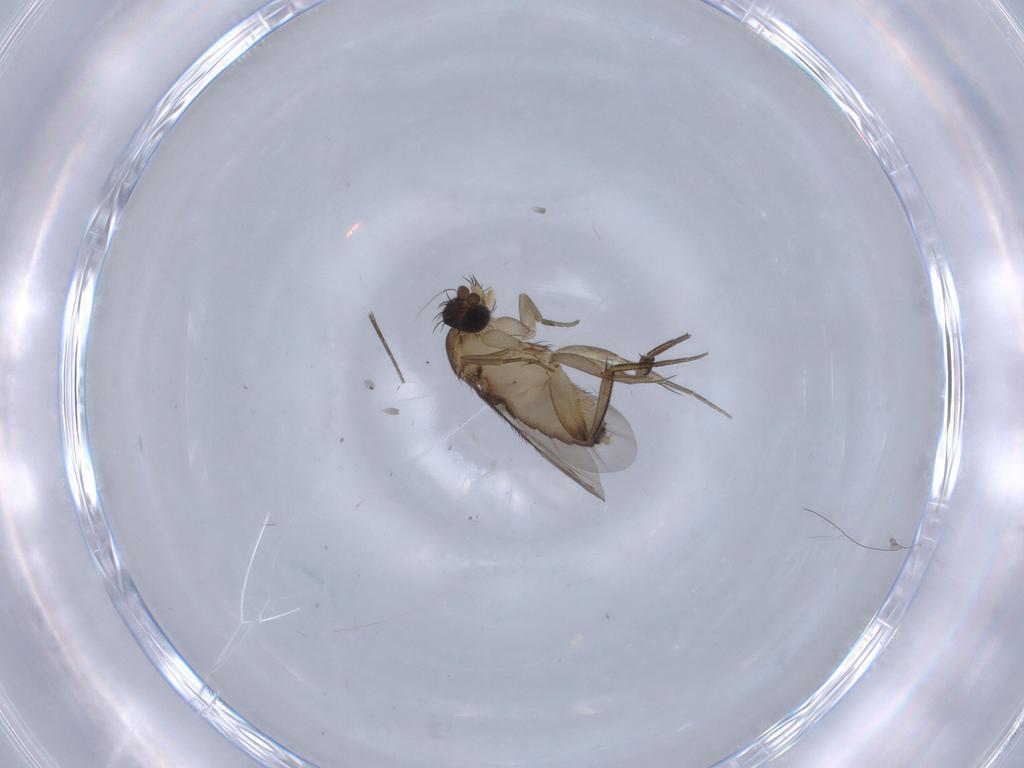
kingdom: Animalia
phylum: Arthropoda
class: Insecta
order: Diptera
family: Phoridae
